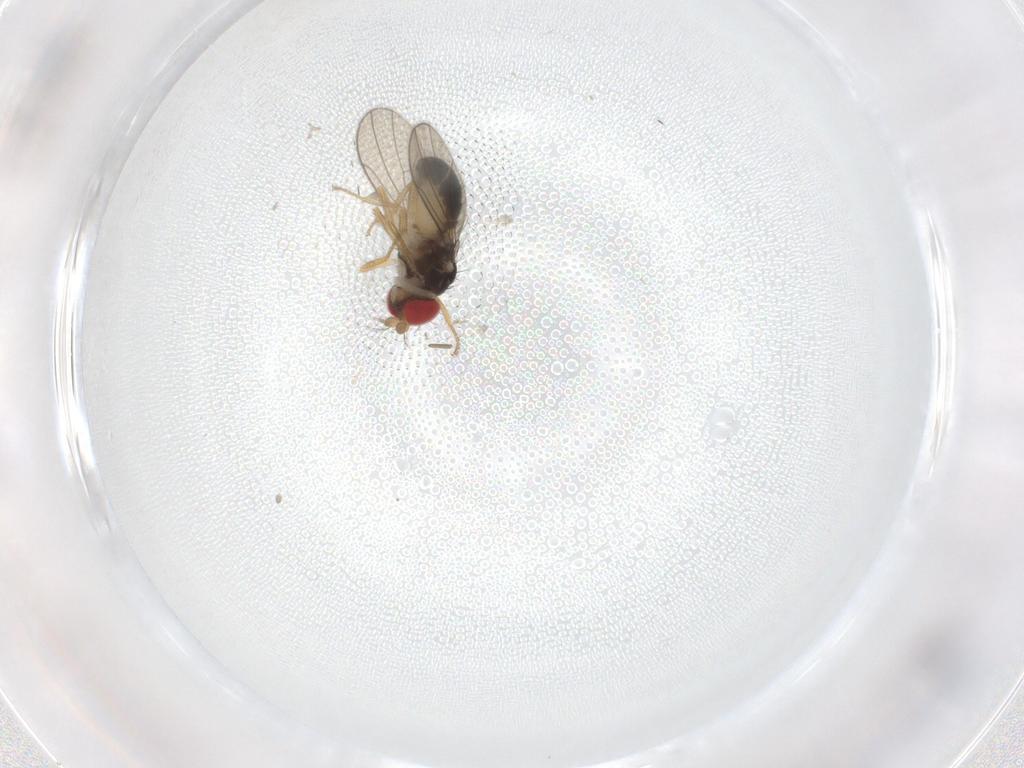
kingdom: Animalia
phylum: Arthropoda
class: Insecta
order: Diptera
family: Drosophilidae
